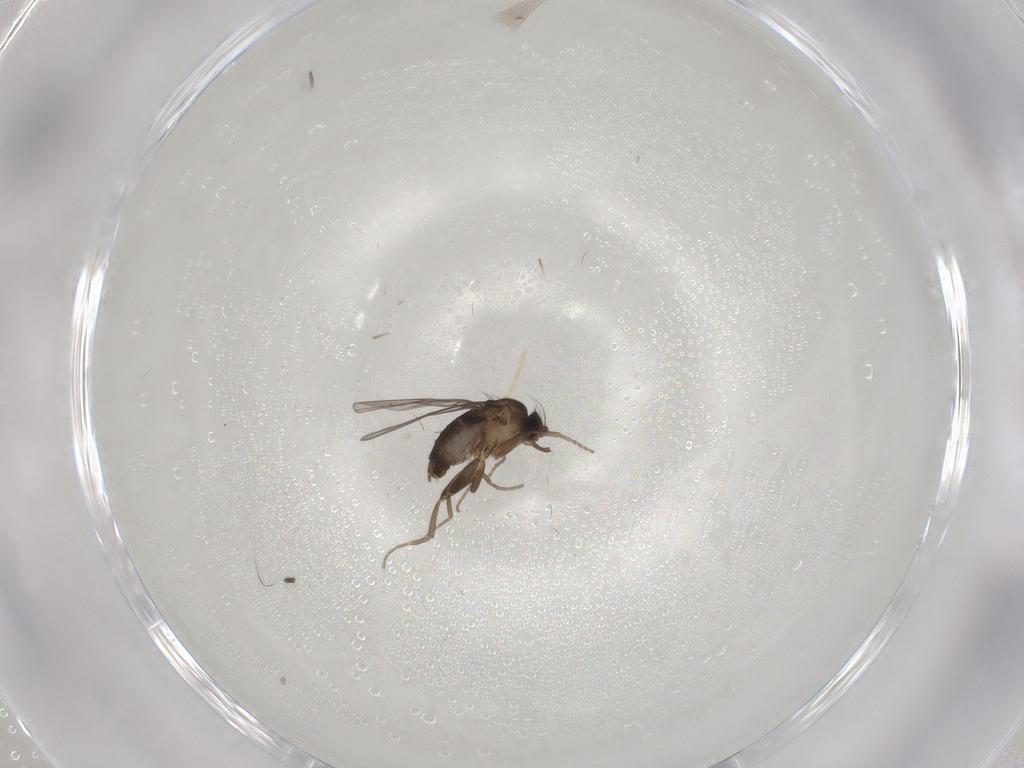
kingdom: Animalia
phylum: Arthropoda
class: Insecta
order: Diptera
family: Phoridae
